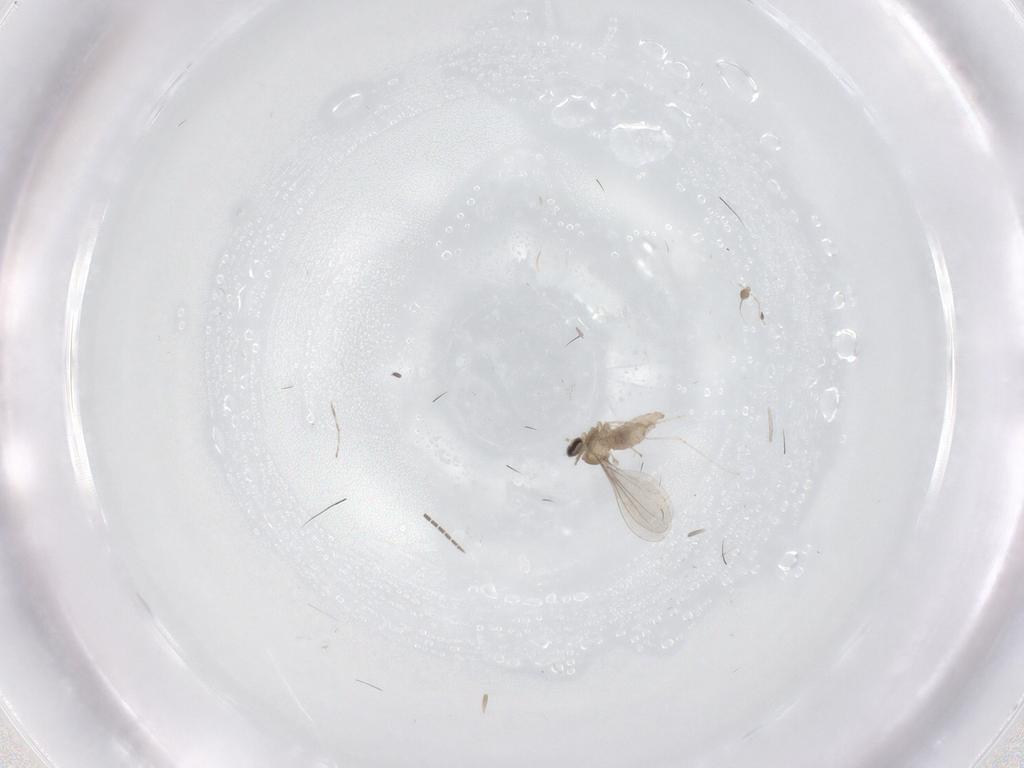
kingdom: Animalia
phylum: Arthropoda
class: Insecta
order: Diptera
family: Cecidomyiidae
